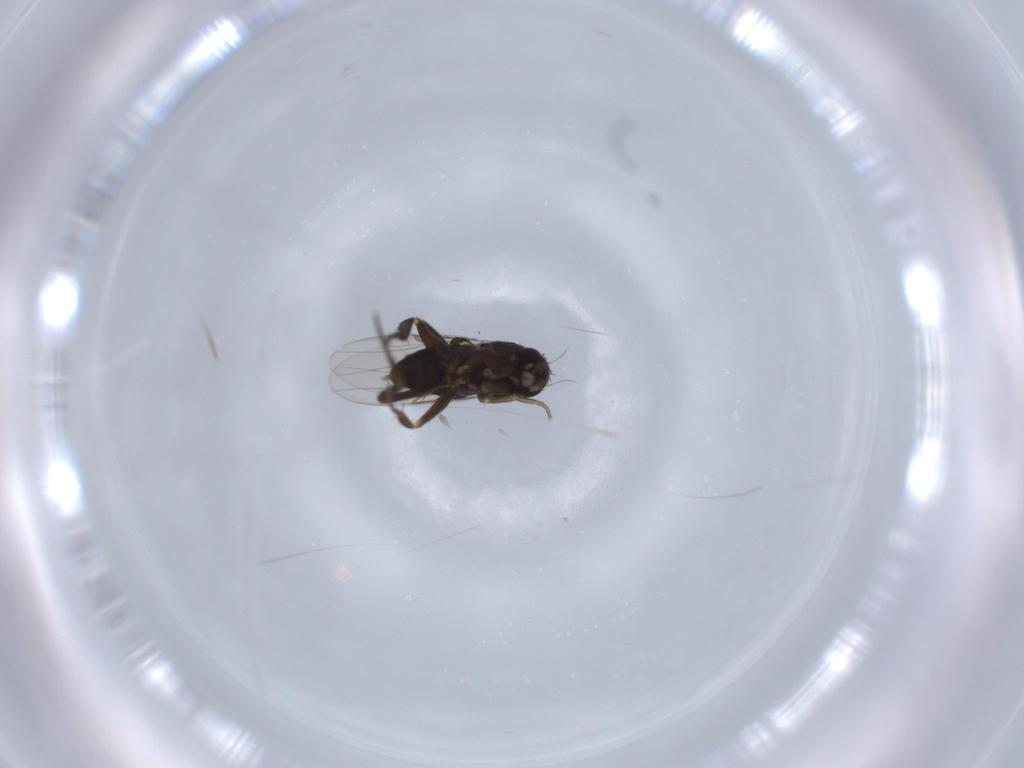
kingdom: Animalia
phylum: Arthropoda
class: Insecta
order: Diptera
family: Phoridae
